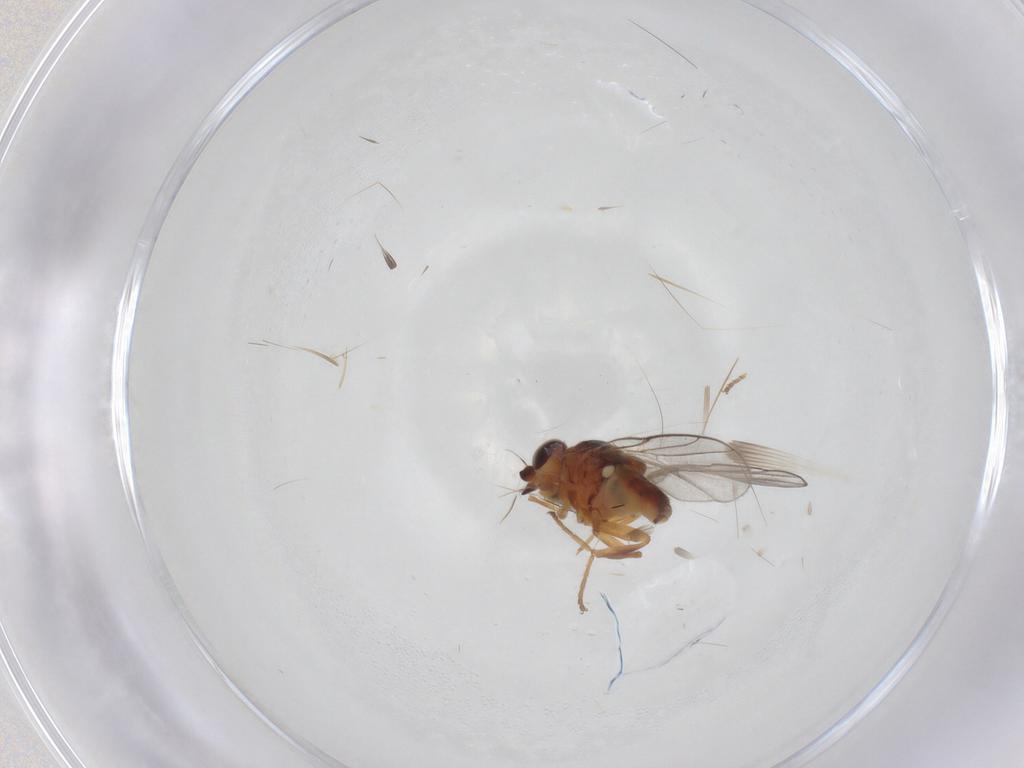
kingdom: Animalia
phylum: Arthropoda
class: Insecta
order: Diptera
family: Chloropidae
